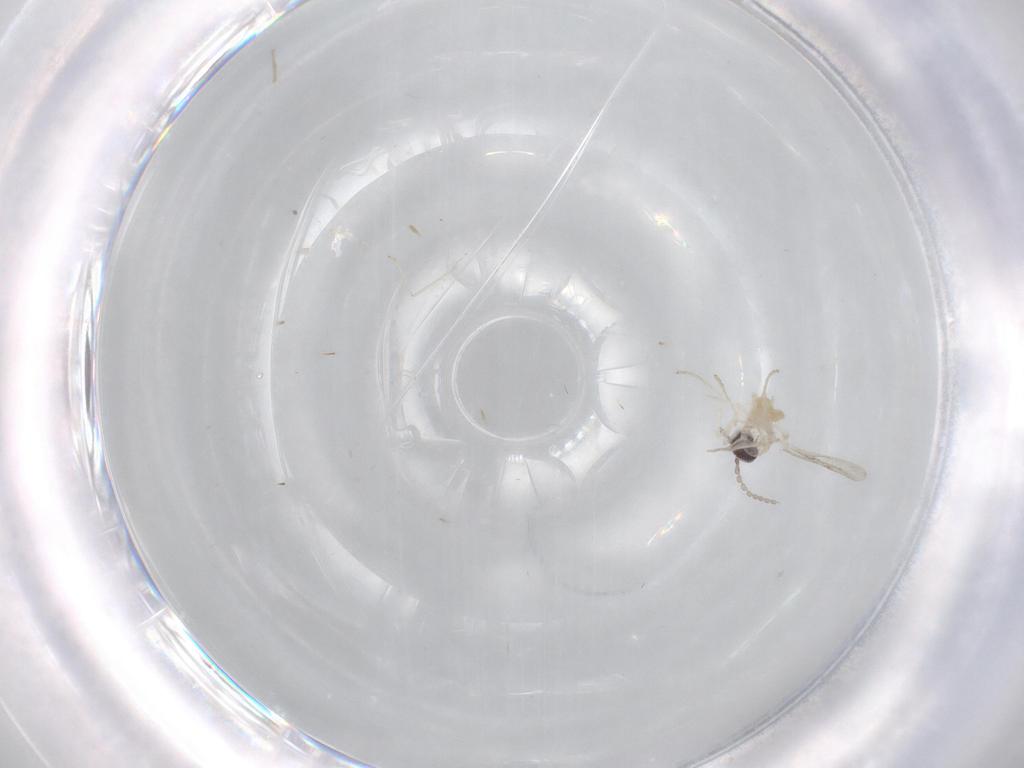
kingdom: Animalia
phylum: Arthropoda
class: Insecta
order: Diptera
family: Cecidomyiidae
